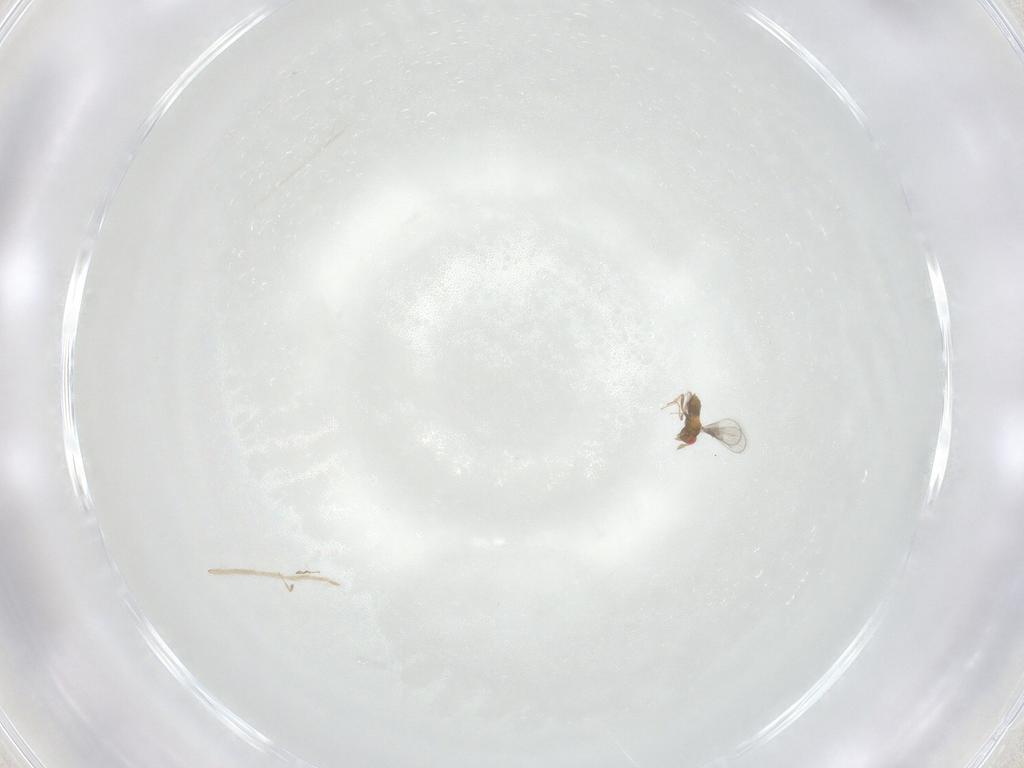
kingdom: Animalia
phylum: Arthropoda
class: Insecta
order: Hymenoptera
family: Trichogrammatidae
